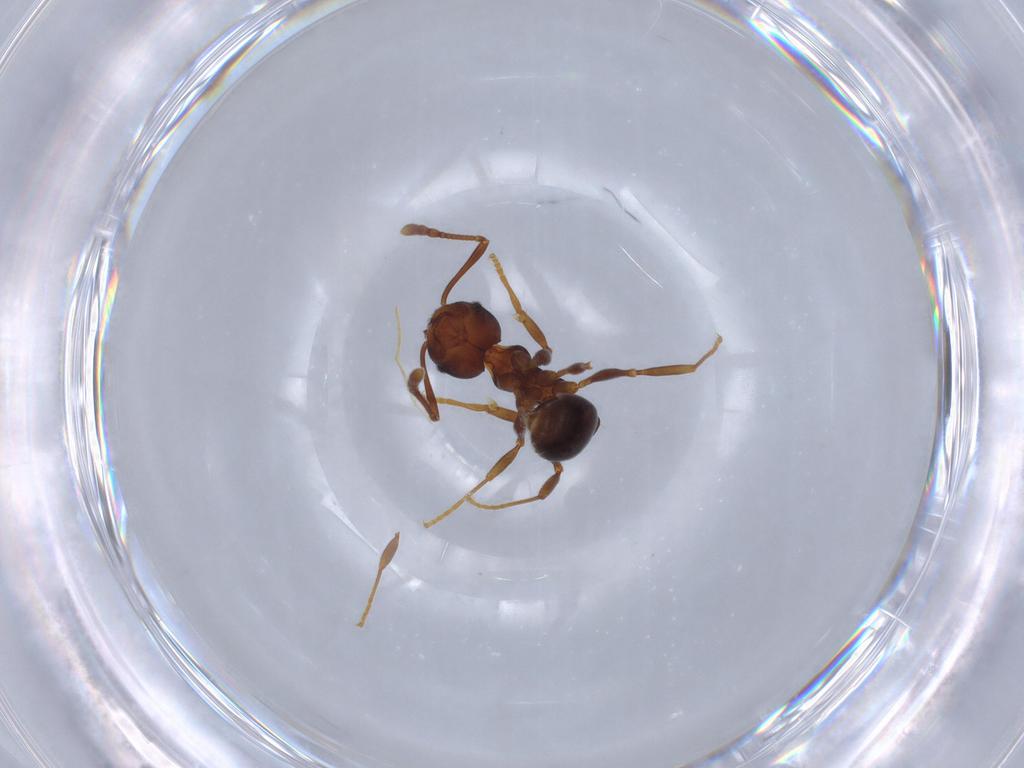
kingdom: Animalia
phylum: Arthropoda
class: Insecta
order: Hymenoptera
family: Formicidae
